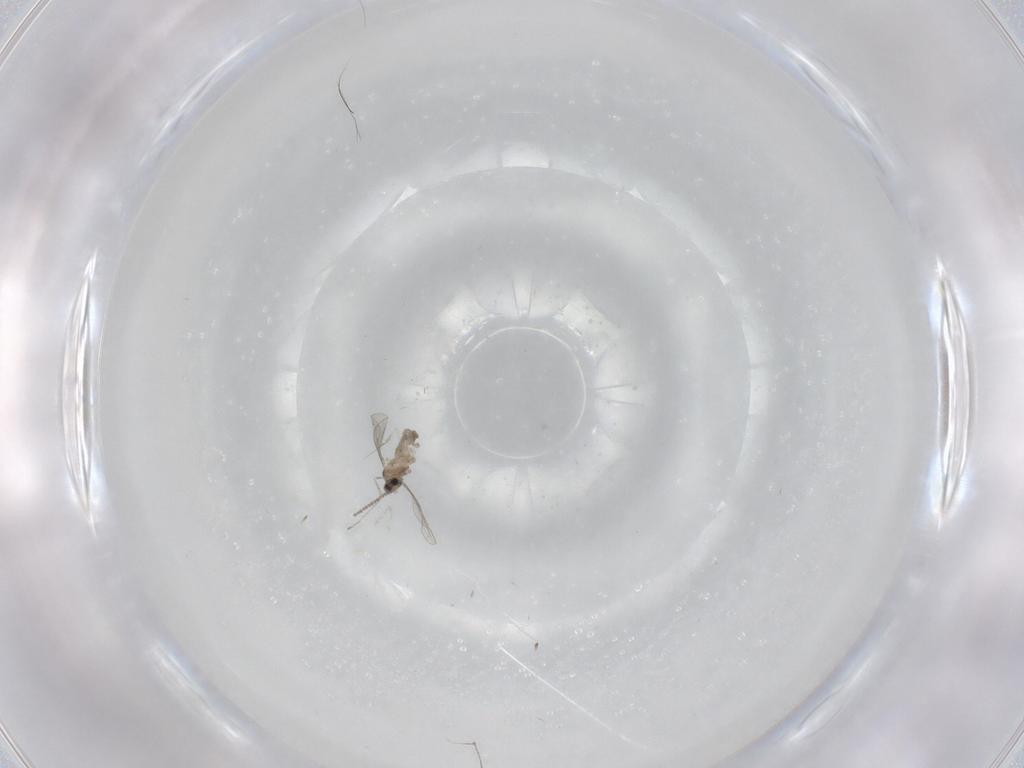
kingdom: Animalia
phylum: Arthropoda
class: Insecta
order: Diptera
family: Cecidomyiidae
